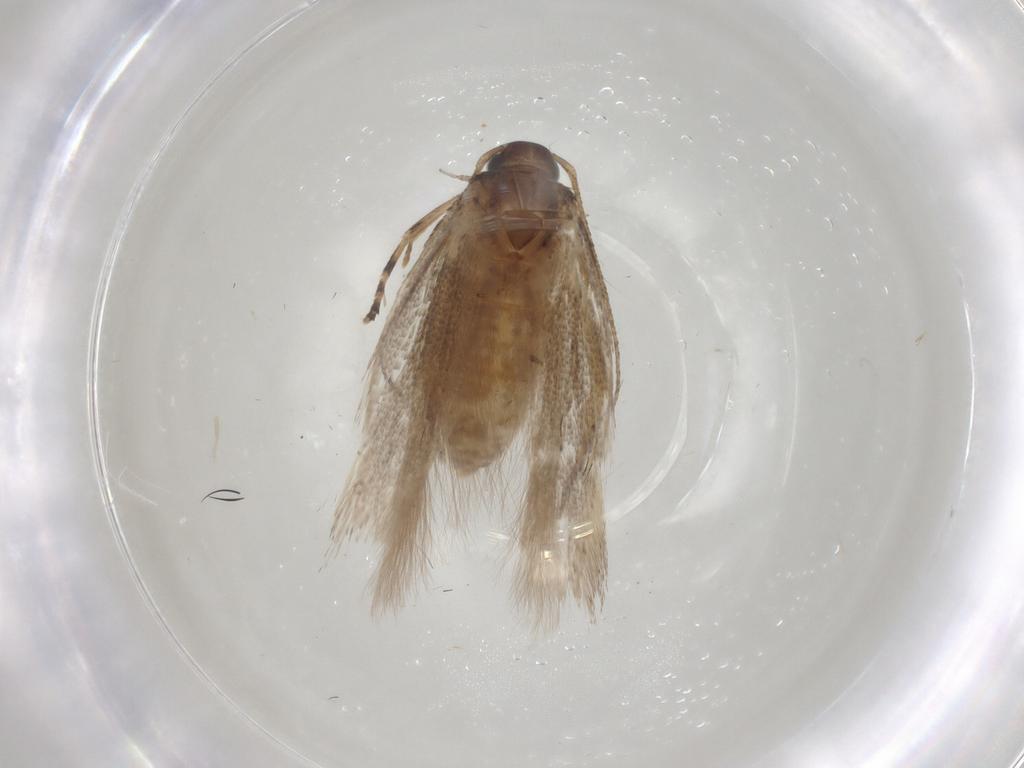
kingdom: Animalia
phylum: Arthropoda
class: Insecta
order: Lepidoptera
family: Gelechiidae
